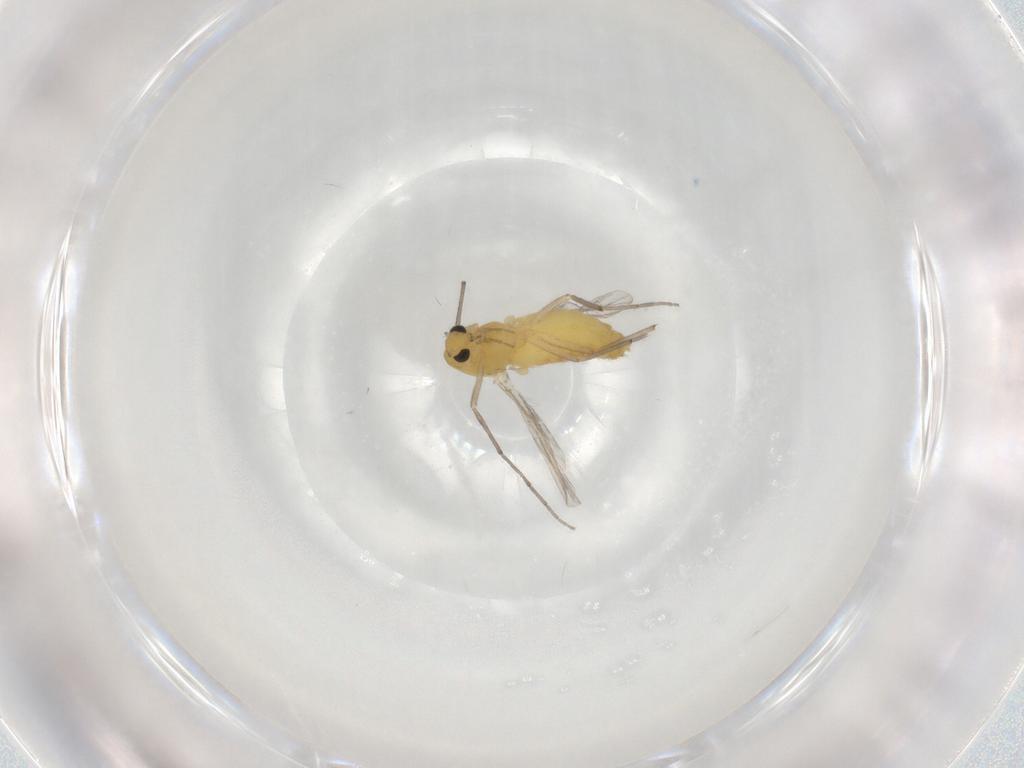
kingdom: Animalia
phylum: Arthropoda
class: Insecta
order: Diptera
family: Chironomidae
